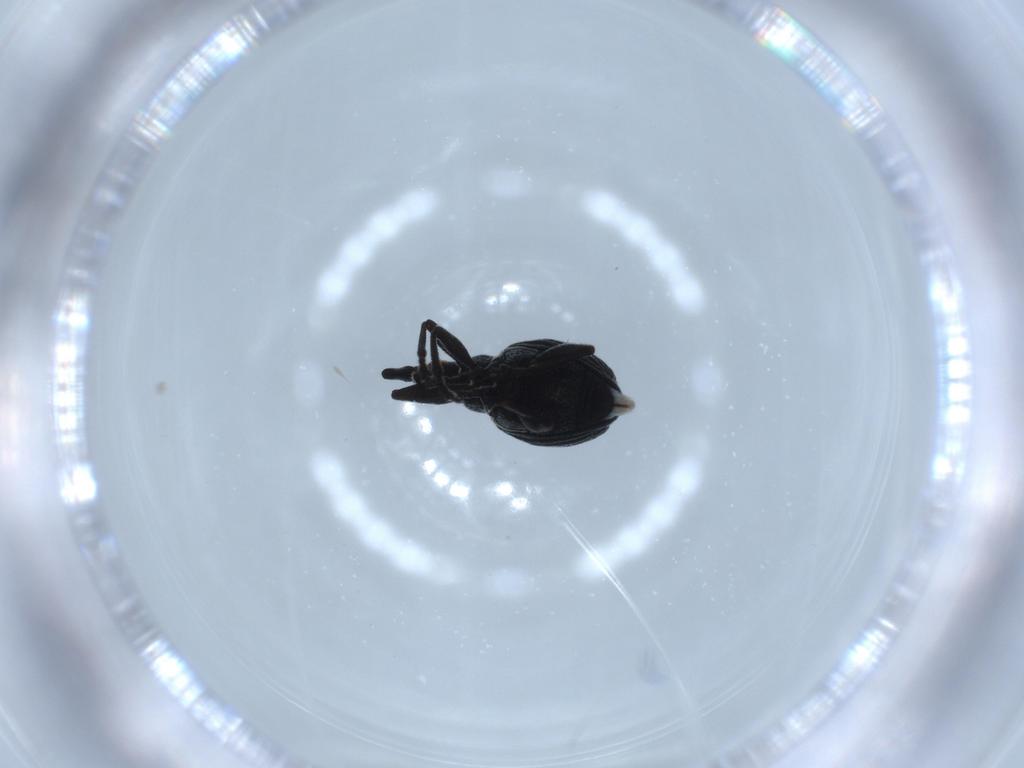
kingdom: Animalia
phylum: Arthropoda
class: Insecta
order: Coleoptera
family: Brentidae
